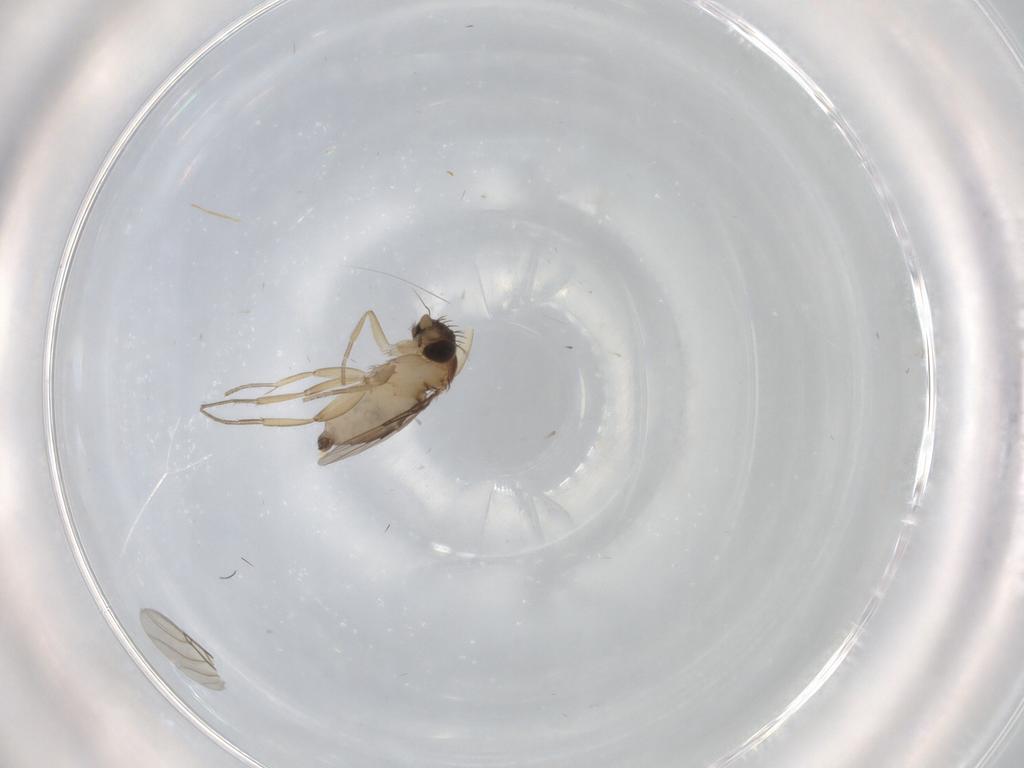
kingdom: Animalia
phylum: Arthropoda
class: Insecta
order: Diptera
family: Phoridae
